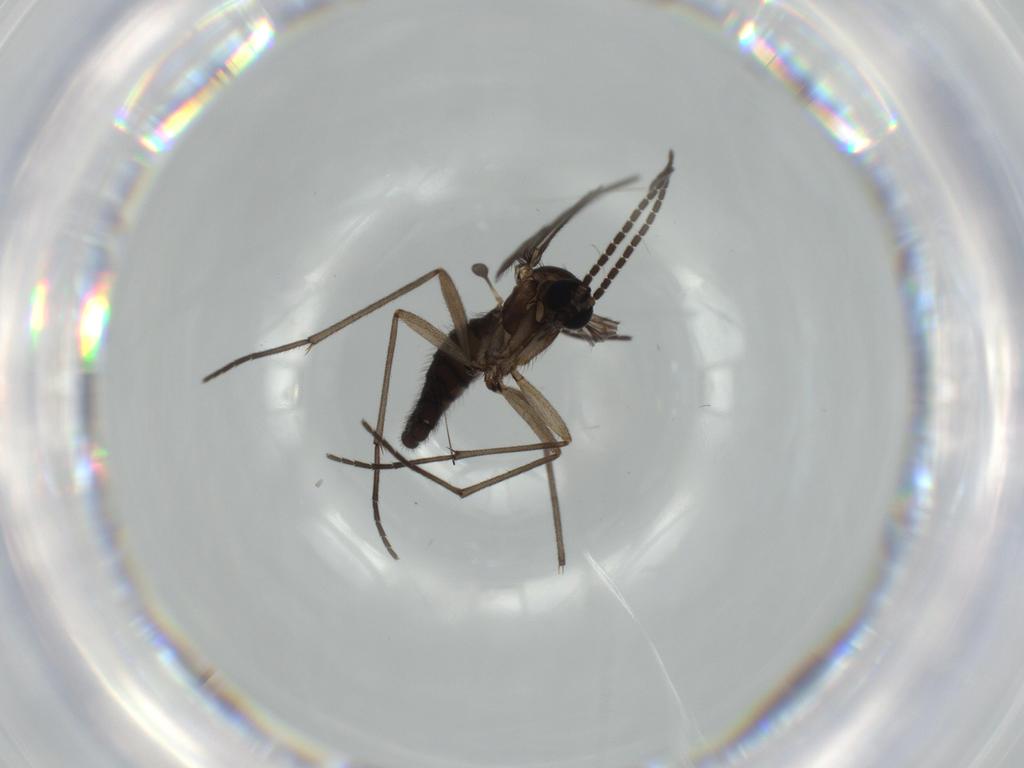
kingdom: Animalia
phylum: Arthropoda
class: Insecta
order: Diptera
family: Sciaridae
